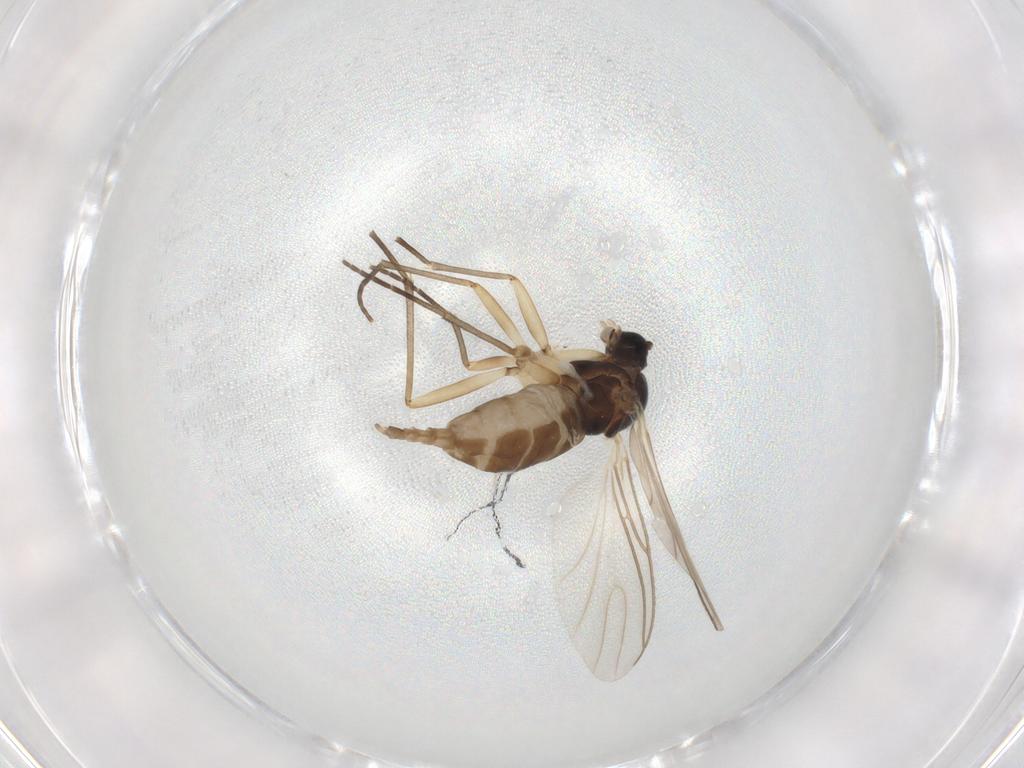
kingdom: Animalia
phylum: Arthropoda
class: Insecta
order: Diptera
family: Sciaridae
